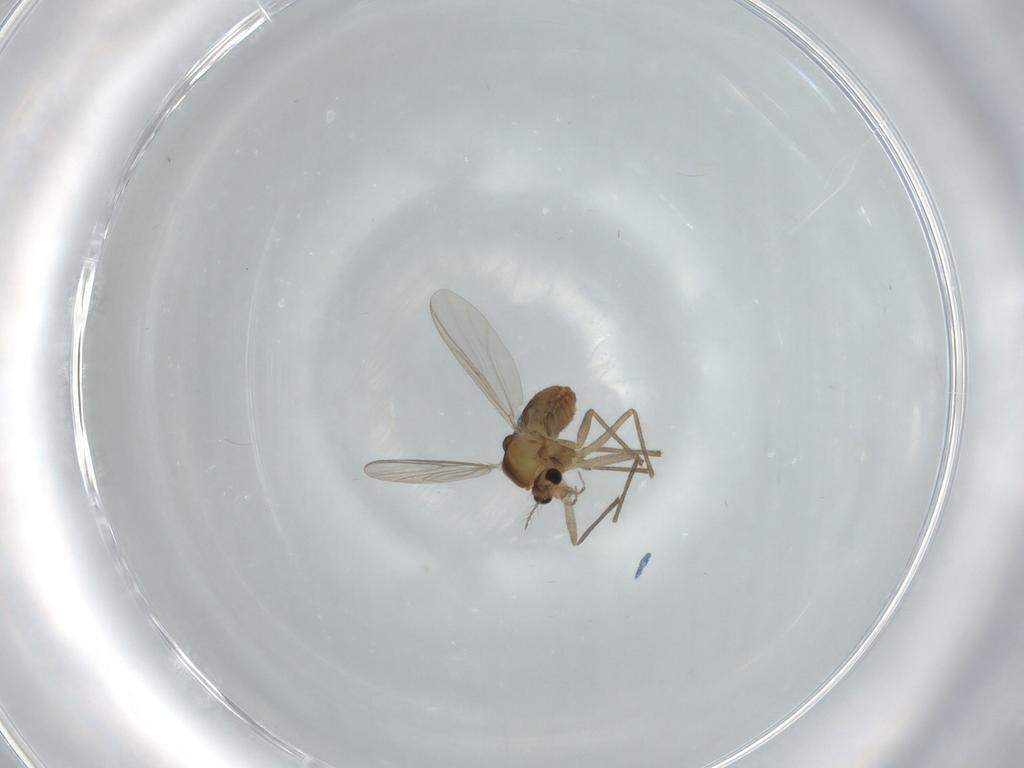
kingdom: Animalia
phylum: Arthropoda
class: Insecta
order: Diptera
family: Chironomidae
